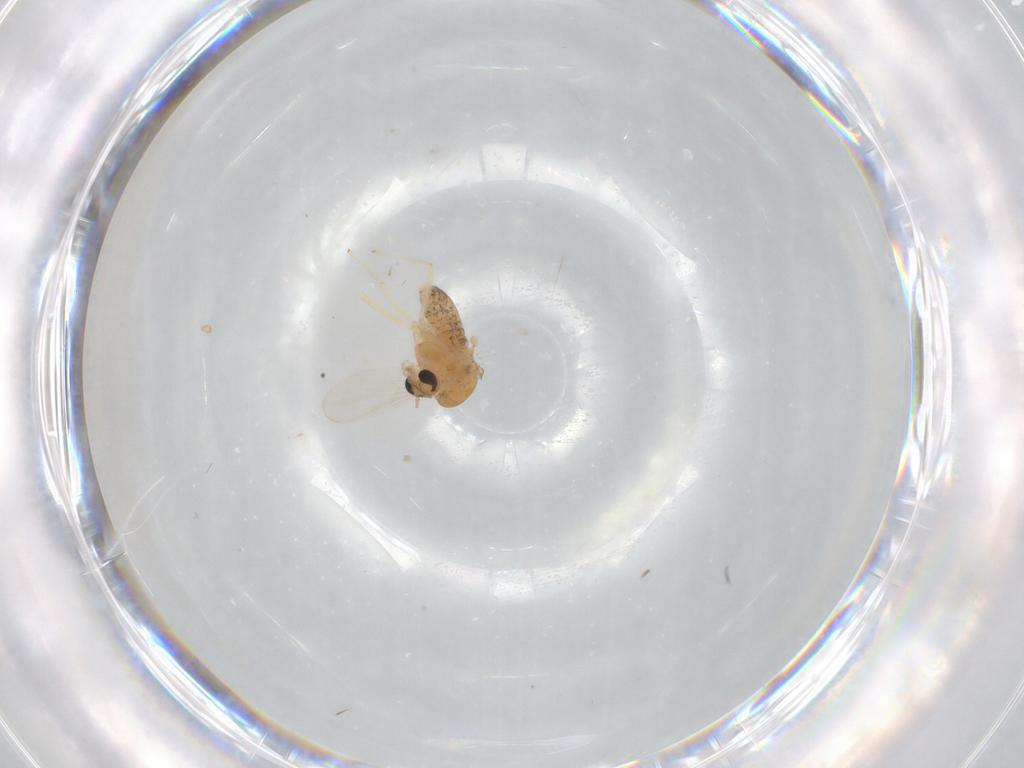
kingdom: Animalia
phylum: Arthropoda
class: Insecta
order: Diptera
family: Chironomidae
